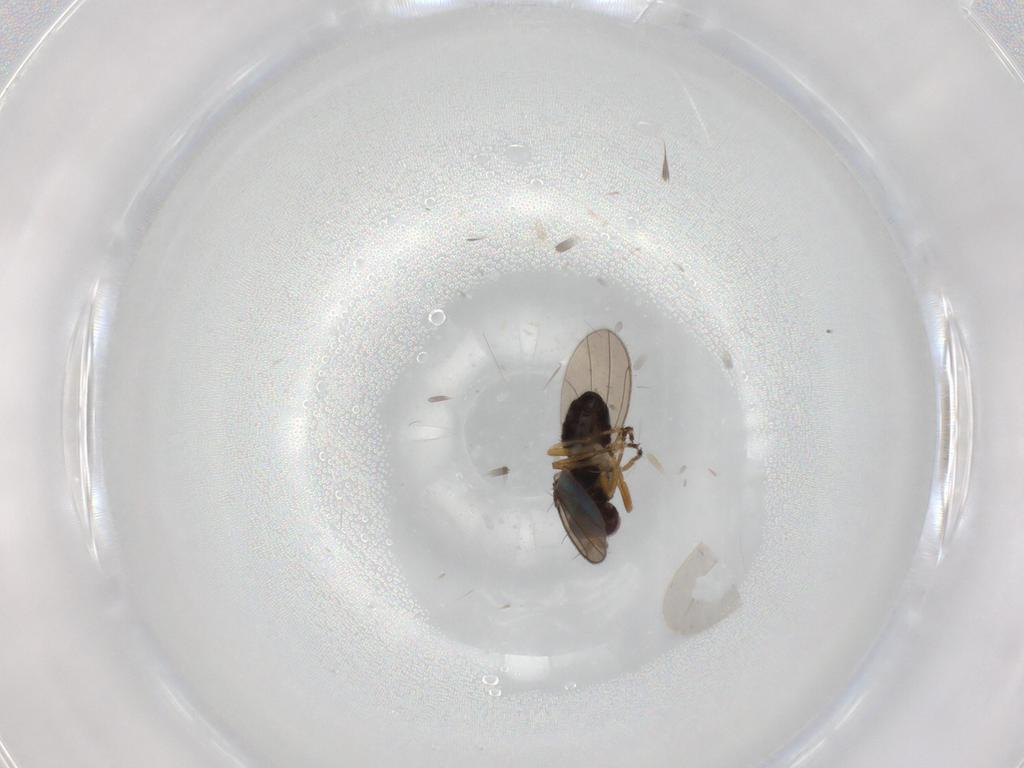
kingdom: Animalia
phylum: Arthropoda
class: Insecta
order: Diptera
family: Ephydridae
